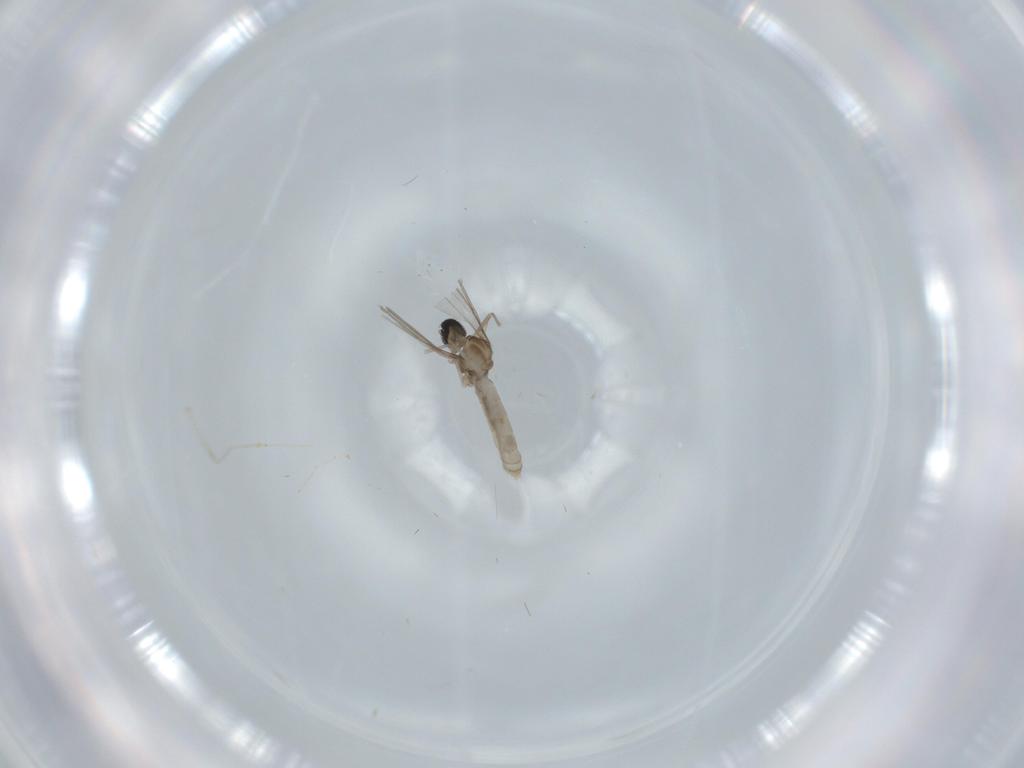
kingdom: Animalia
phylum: Arthropoda
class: Insecta
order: Diptera
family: Cecidomyiidae
